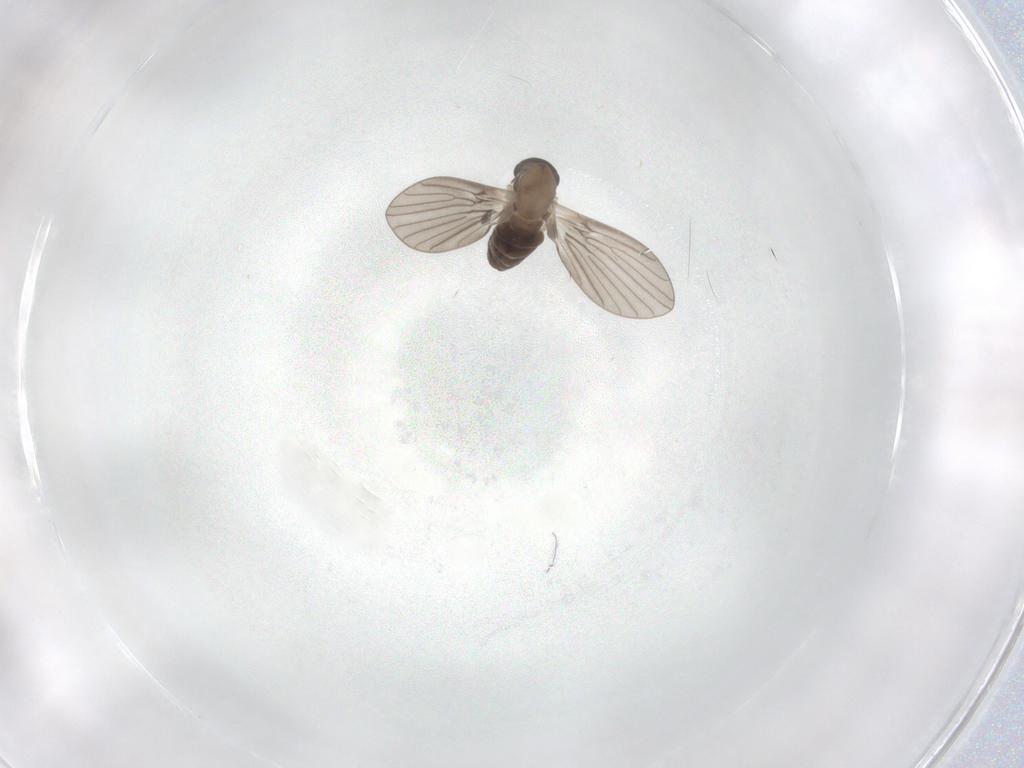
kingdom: Animalia
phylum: Arthropoda
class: Insecta
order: Diptera
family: Psychodidae
